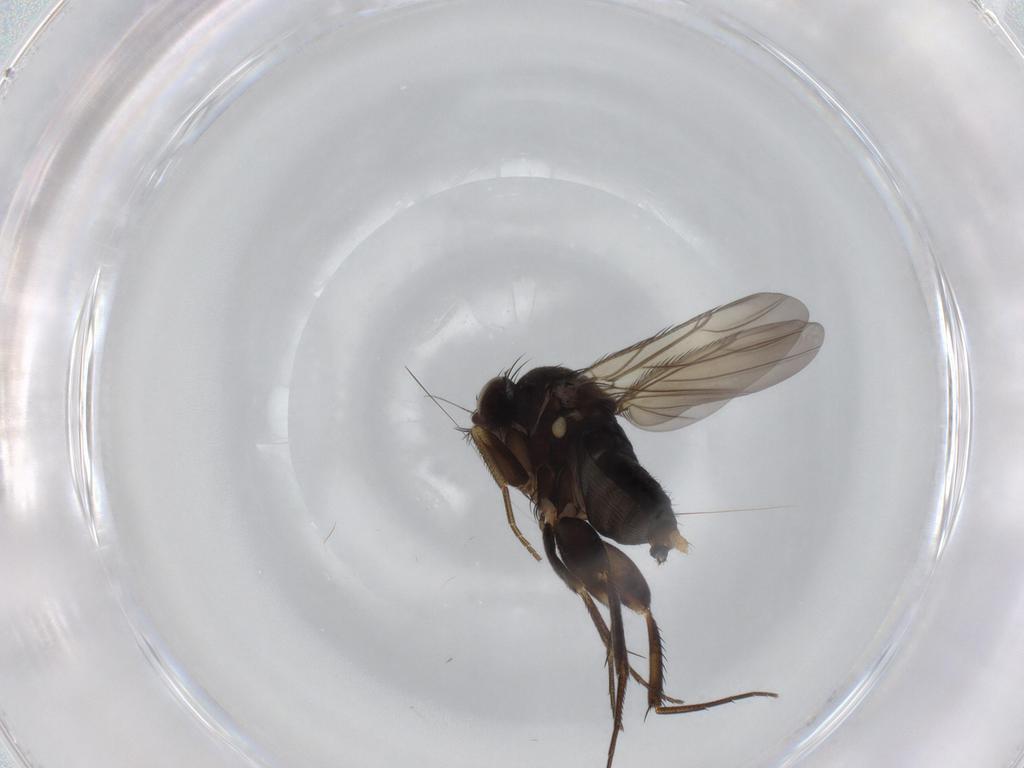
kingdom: Animalia
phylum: Arthropoda
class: Insecta
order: Diptera
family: Phoridae
